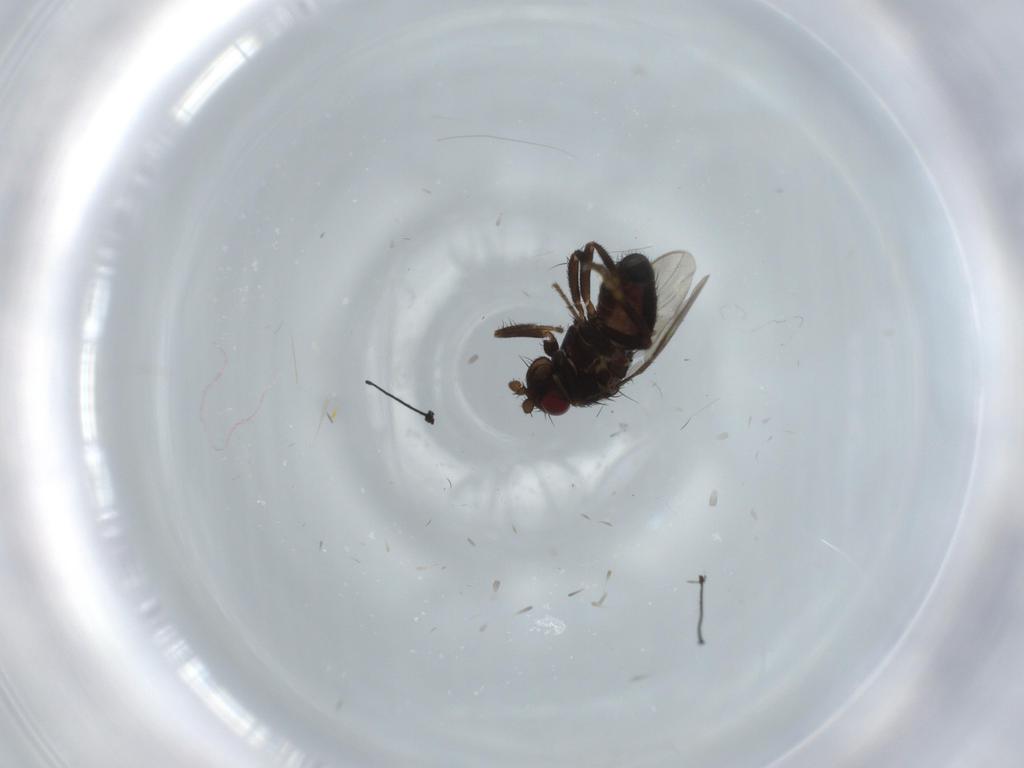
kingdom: Animalia
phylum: Arthropoda
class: Insecta
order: Diptera
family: Sphaeroceridae
